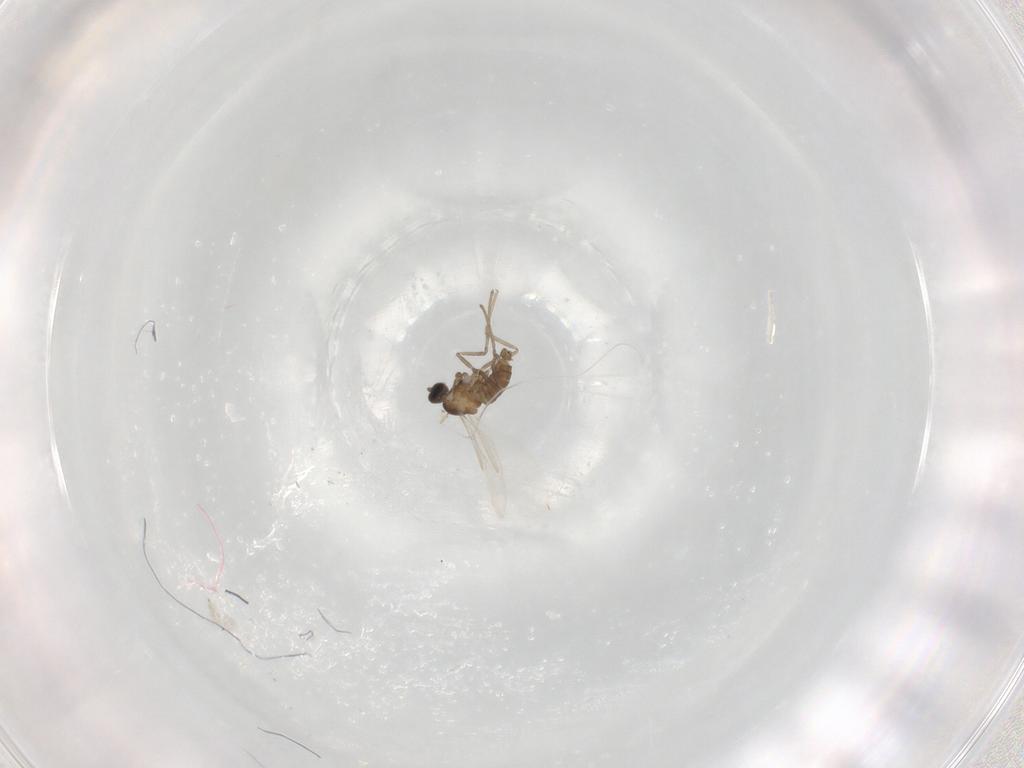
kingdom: Animalia
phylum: Arthropoda
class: Insecta
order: Diptera
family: Cecidomyiidae
